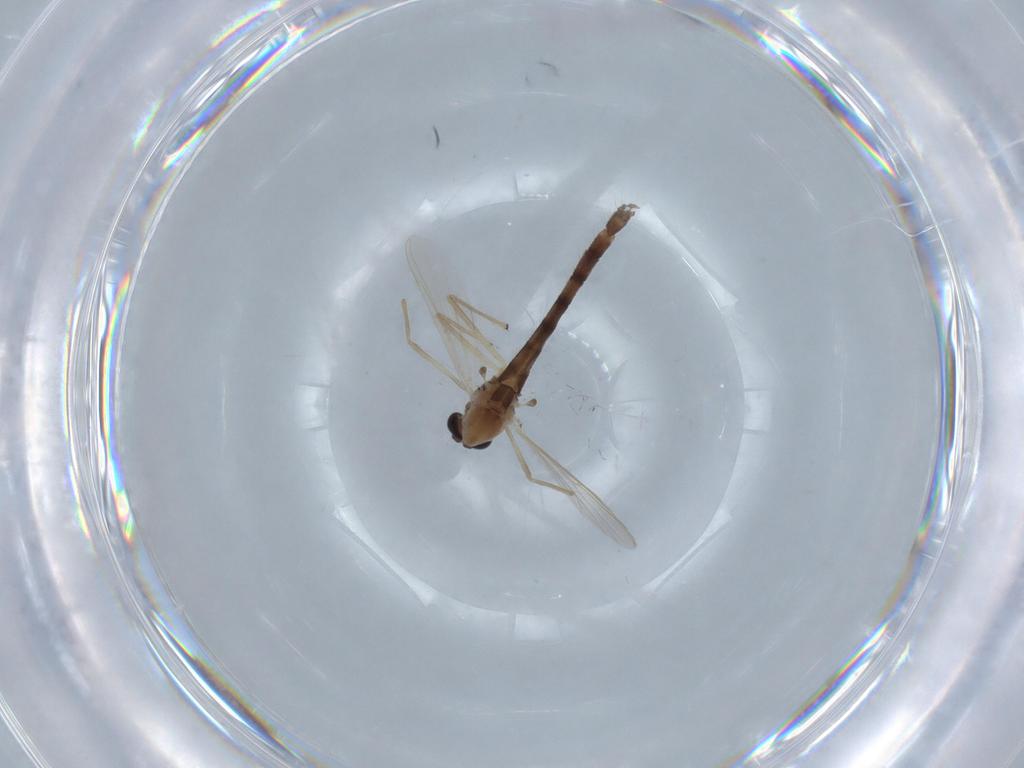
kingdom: Animalia
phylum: Arthropoda
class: Insecta
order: Diptera
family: Chironomidae
